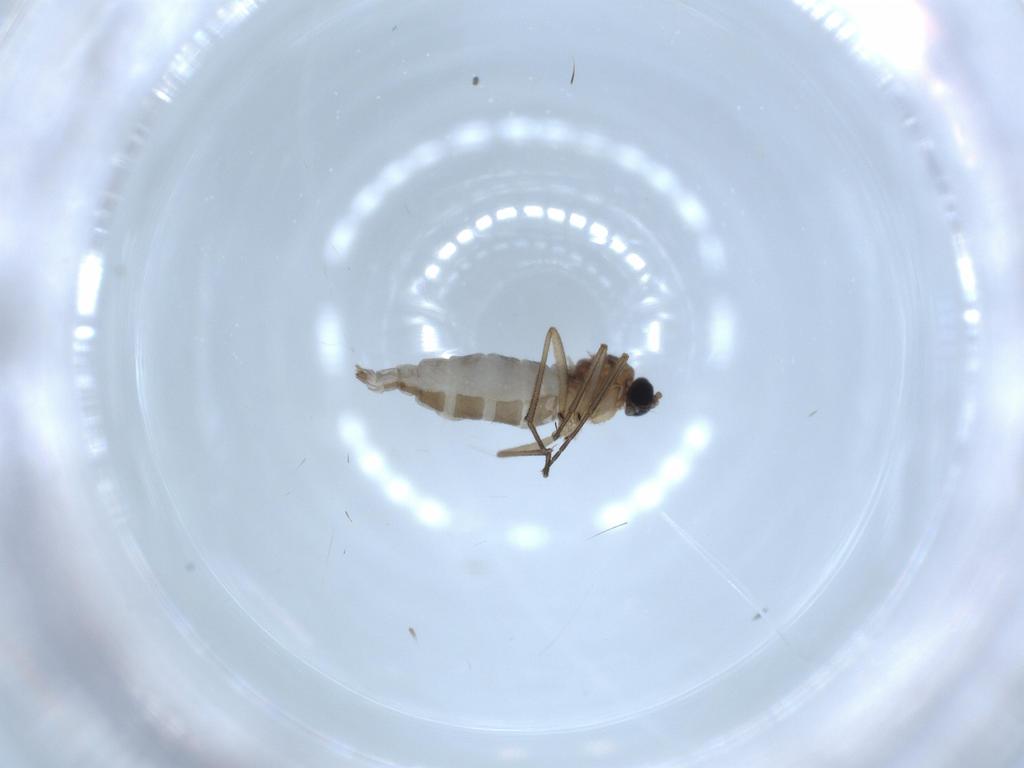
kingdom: Animalia
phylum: Arthropoda
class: Insecta
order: Diptera
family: Sciaridae
